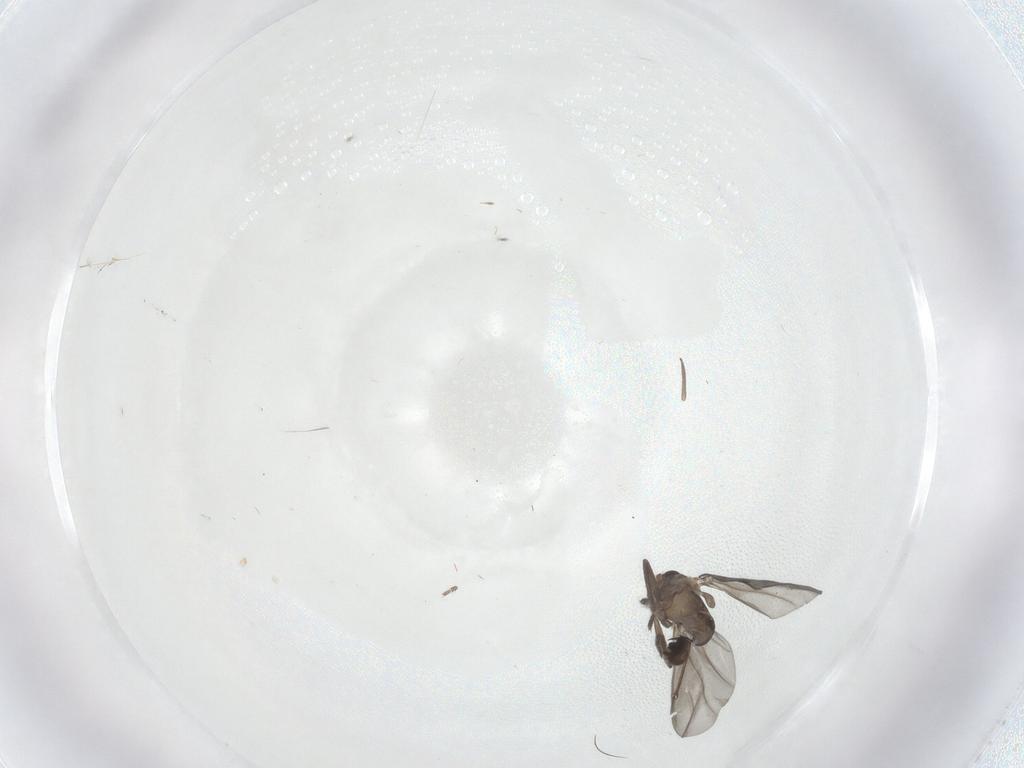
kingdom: Animalia
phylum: Arthropoda
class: Insecta
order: Diptera
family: Phoridae
